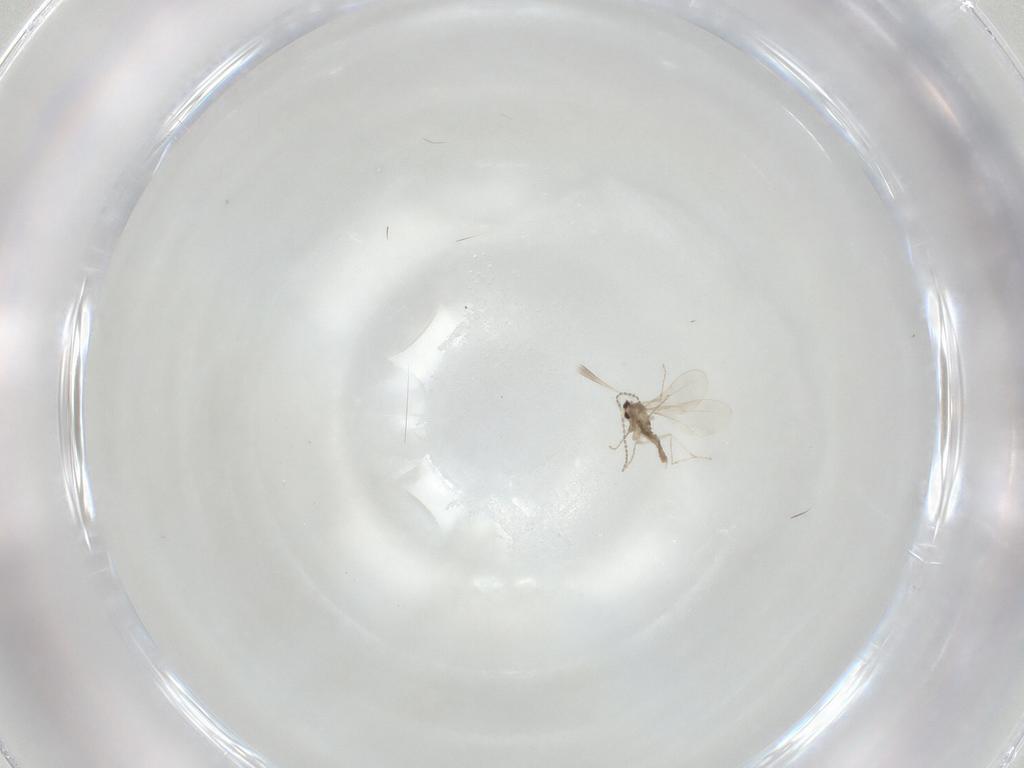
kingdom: Animalia
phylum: Arthropoda
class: Insecta
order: Diptera
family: Cecidomyiidae
